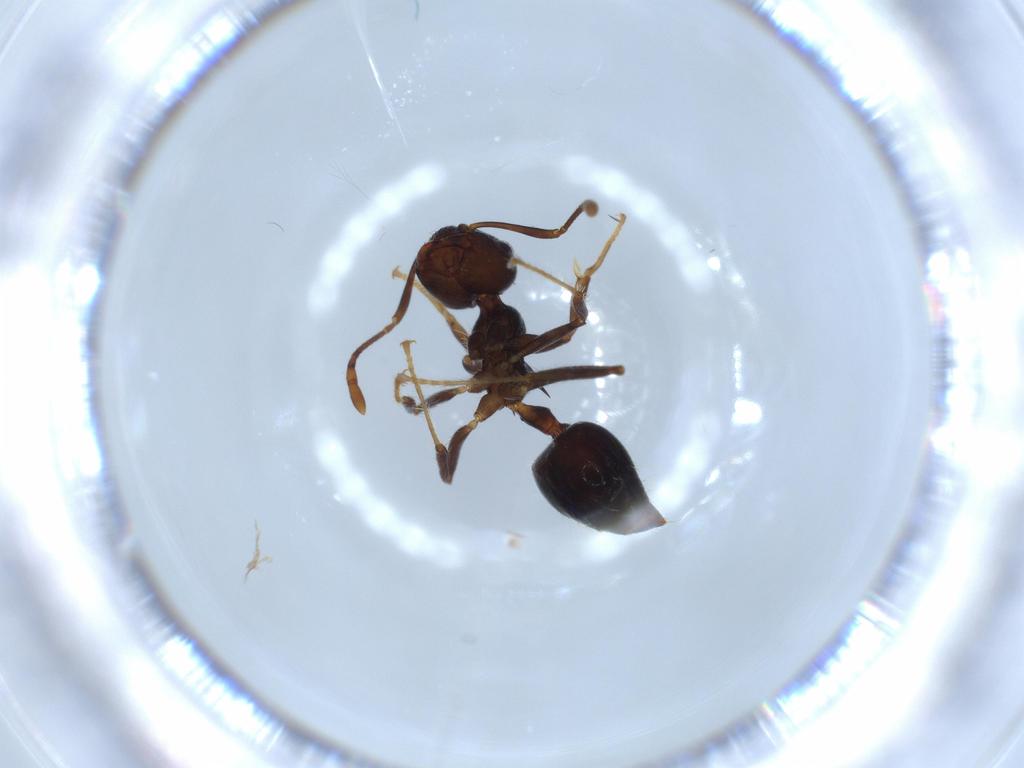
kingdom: Animalia
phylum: Arthropoda
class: Insecta
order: Hymenoptera
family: Formicidae
